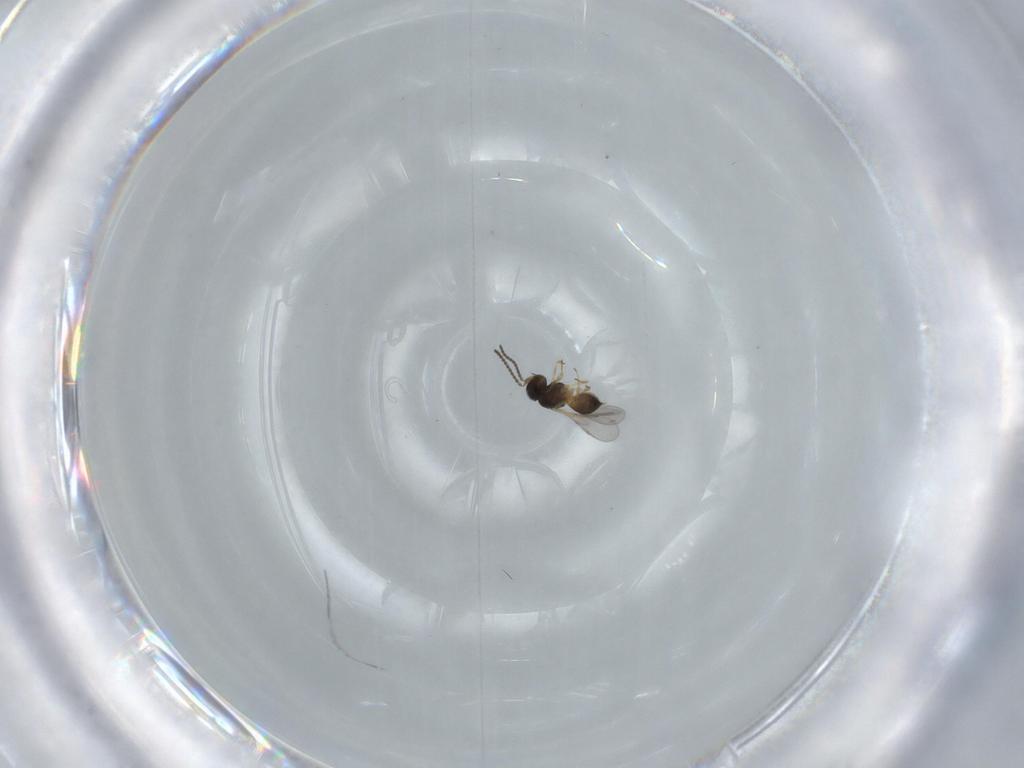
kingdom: Animalia
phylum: Arthropoda
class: Insecta
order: Hymenoptera
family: Scelionidae
